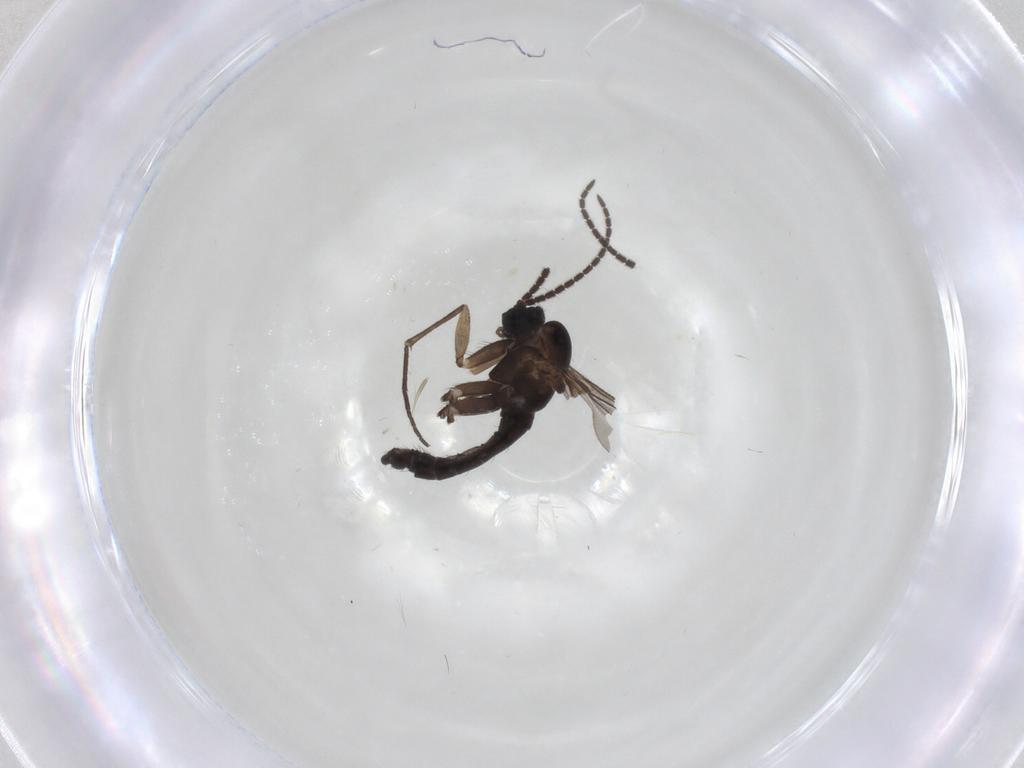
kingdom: Animalia
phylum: Arthropoda
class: Insecta
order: Diptera
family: Sciaridae
